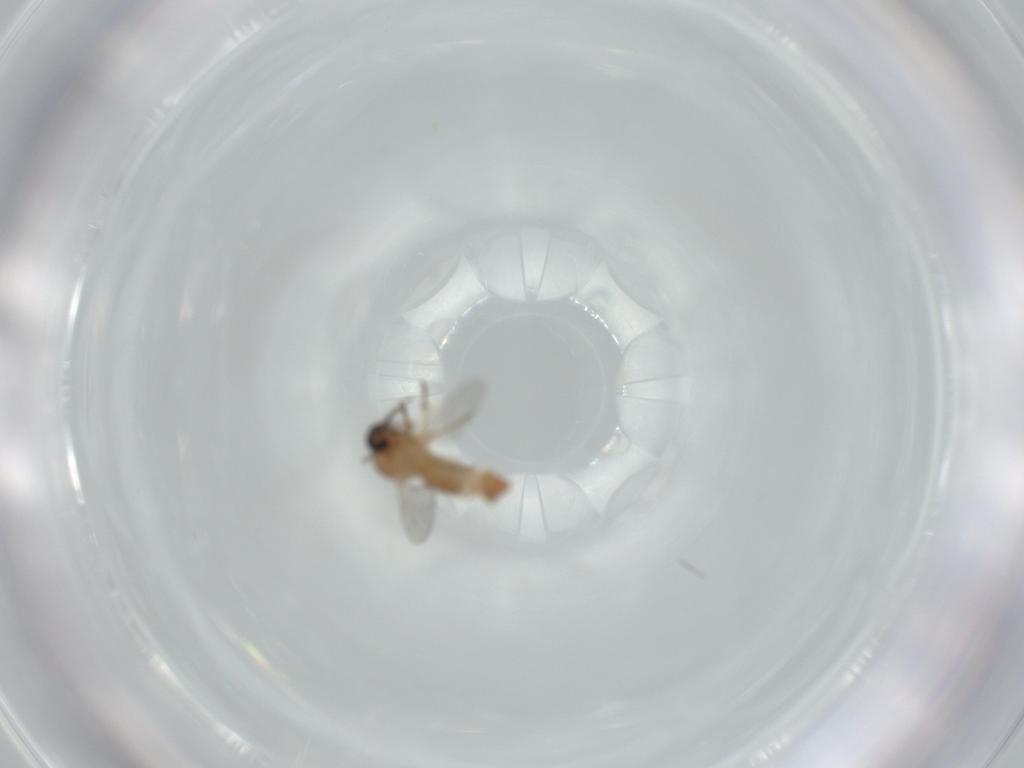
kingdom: Animalia
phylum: Arthropoda
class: Insecta
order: Diptera
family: Ceratopogonidae
